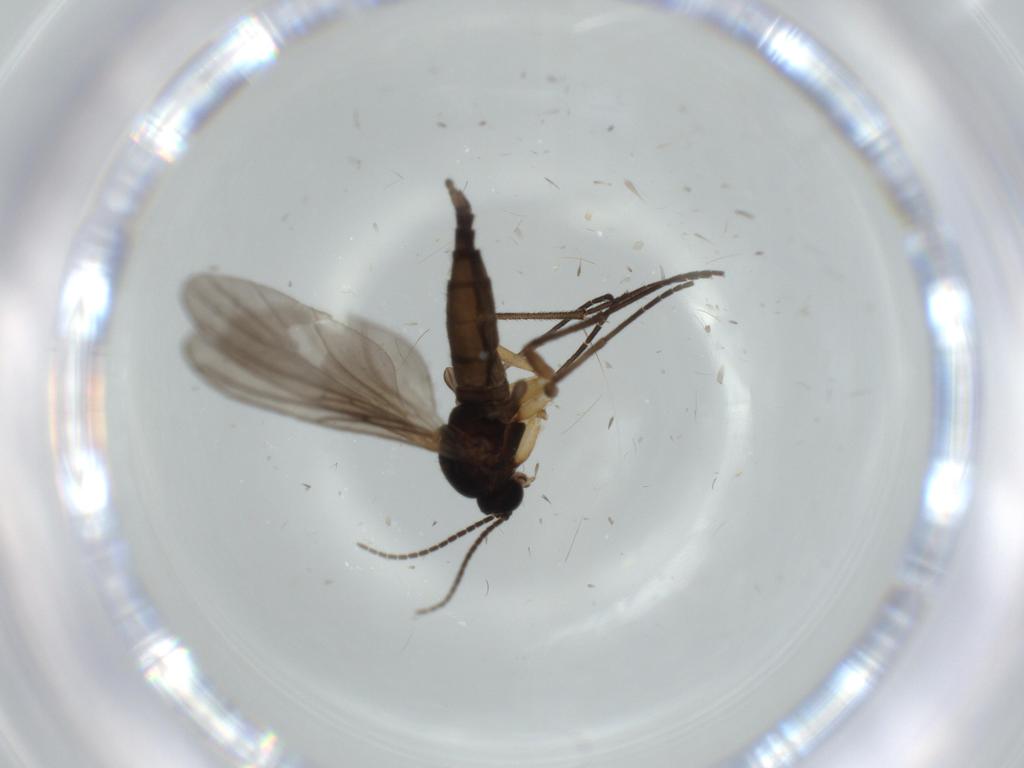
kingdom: Animalia
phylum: Arthropoda
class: Insecta
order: Diptera
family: Sciaridae
